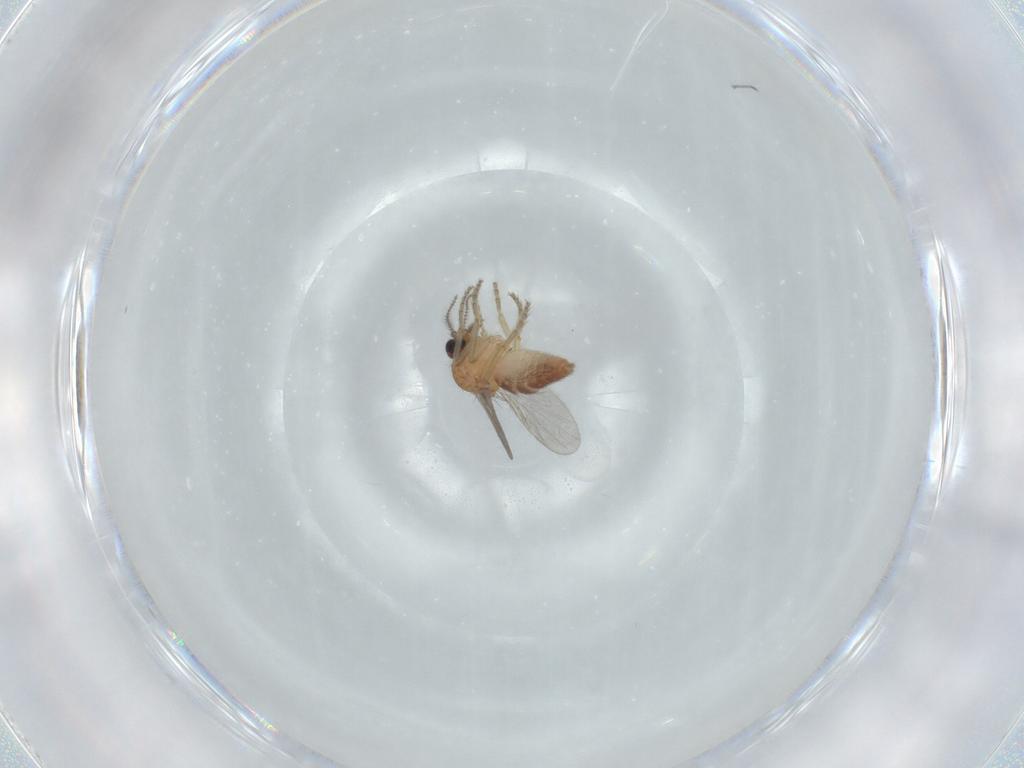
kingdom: Animalia
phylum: Arthropoda
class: Insecta
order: Diptera
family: Ceratopogonidae
